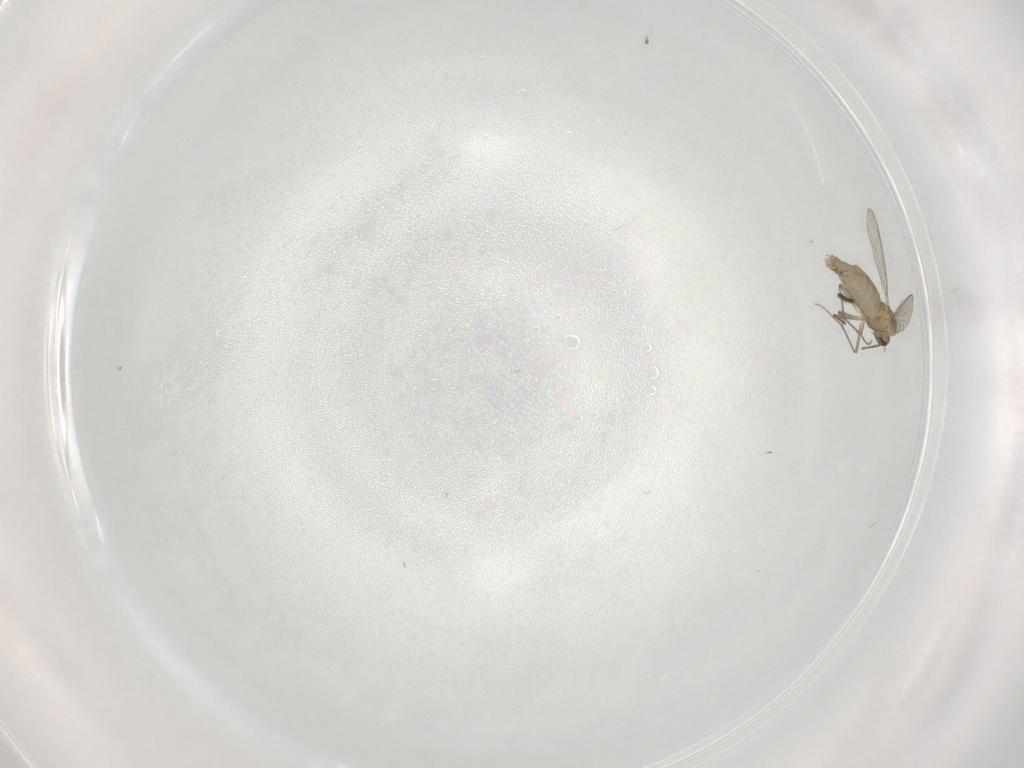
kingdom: Animalia
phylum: Arthropoda
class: Insecta
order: Diptera
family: Chironomidae
